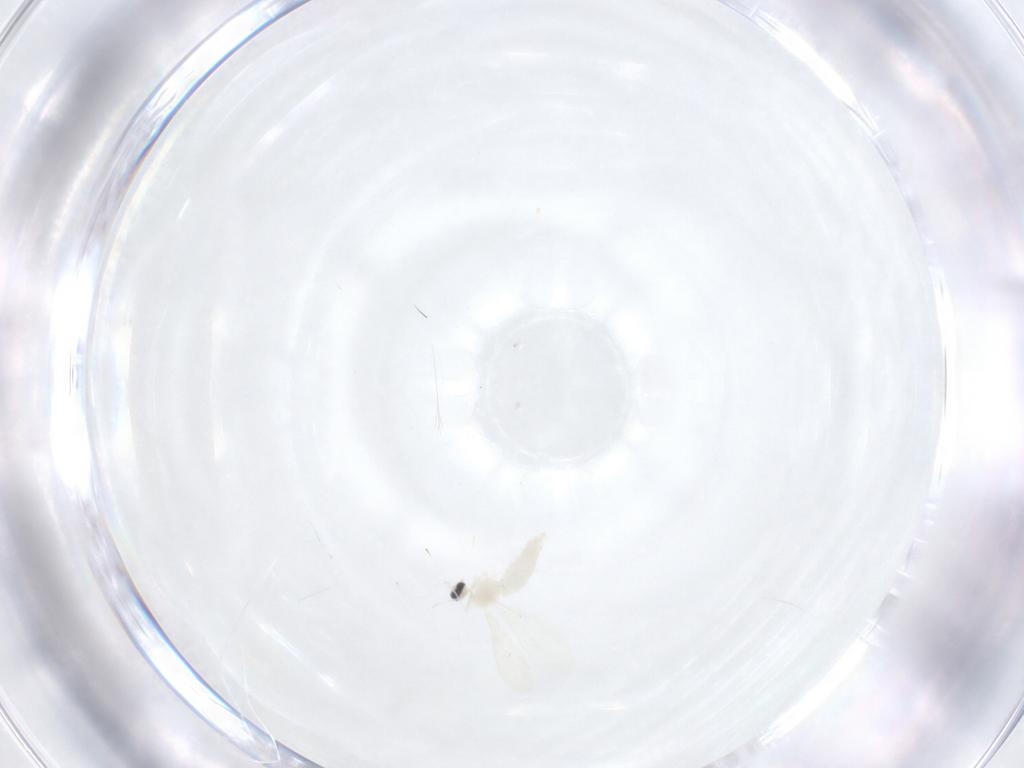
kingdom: Animalia
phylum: Arthropoda
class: Insecta
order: Diptera
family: Cecidomyiidae
